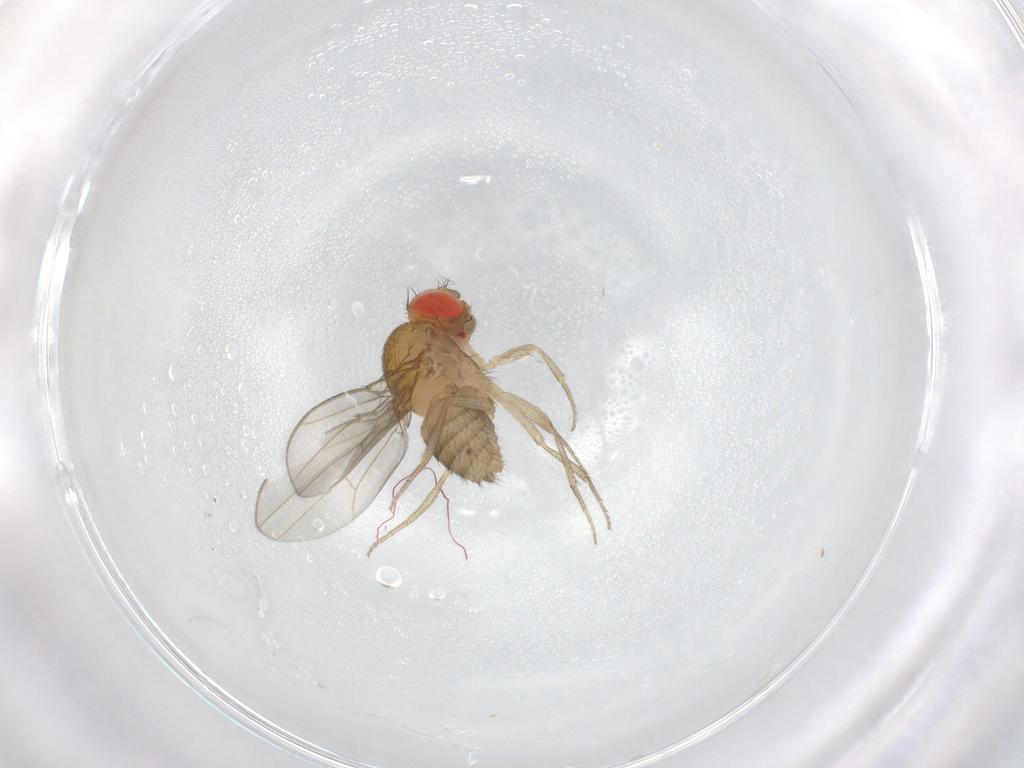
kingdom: Animalia
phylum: Arthropoda
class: Insecta
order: Diptera
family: Drosophilidae
